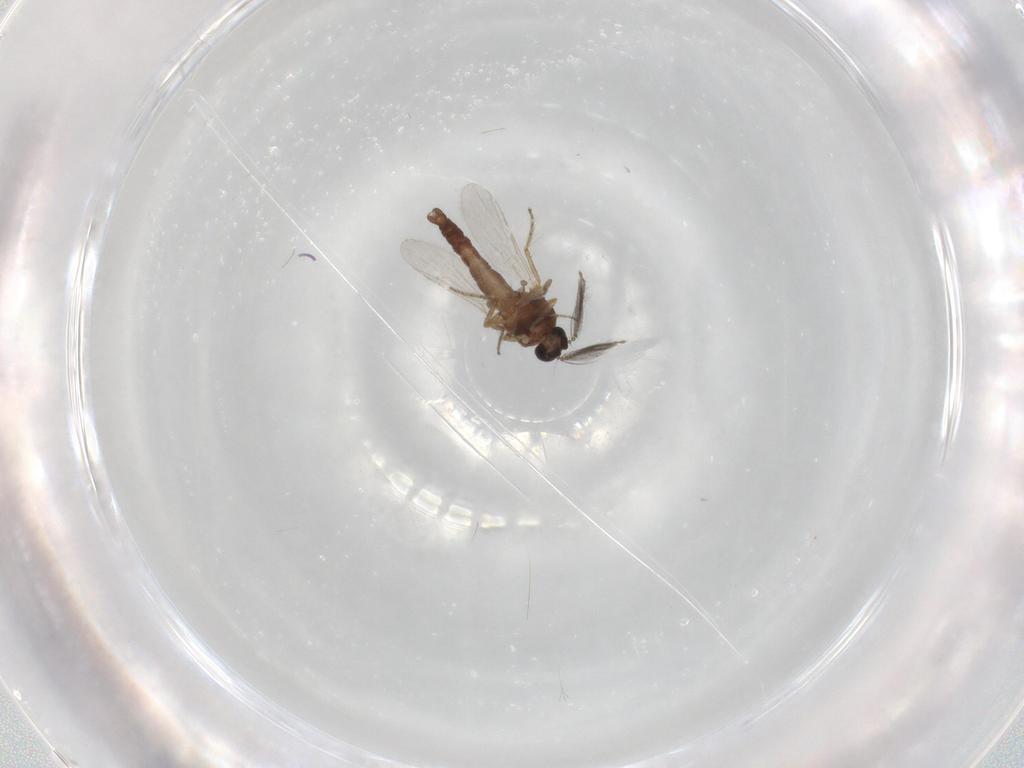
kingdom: Animalia
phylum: Arthropoda
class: Insecta
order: Diptera
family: Ceratopogonidae
